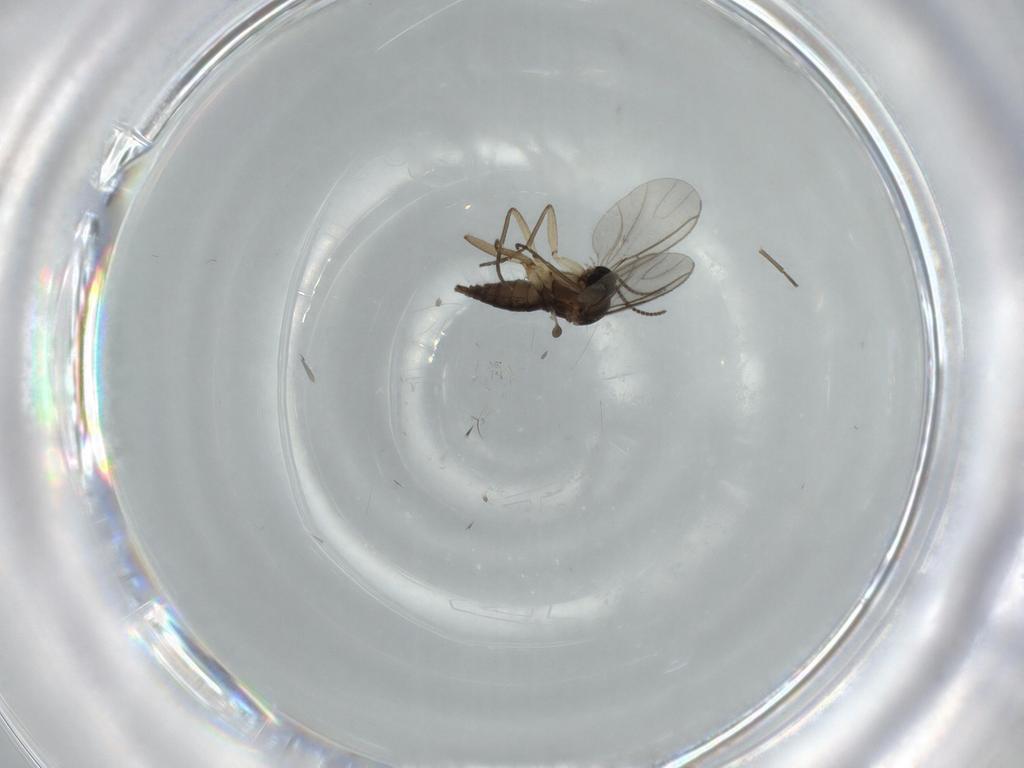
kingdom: Animalia
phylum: Arthropoda
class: Insecta
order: Diptera
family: Sciaridae
